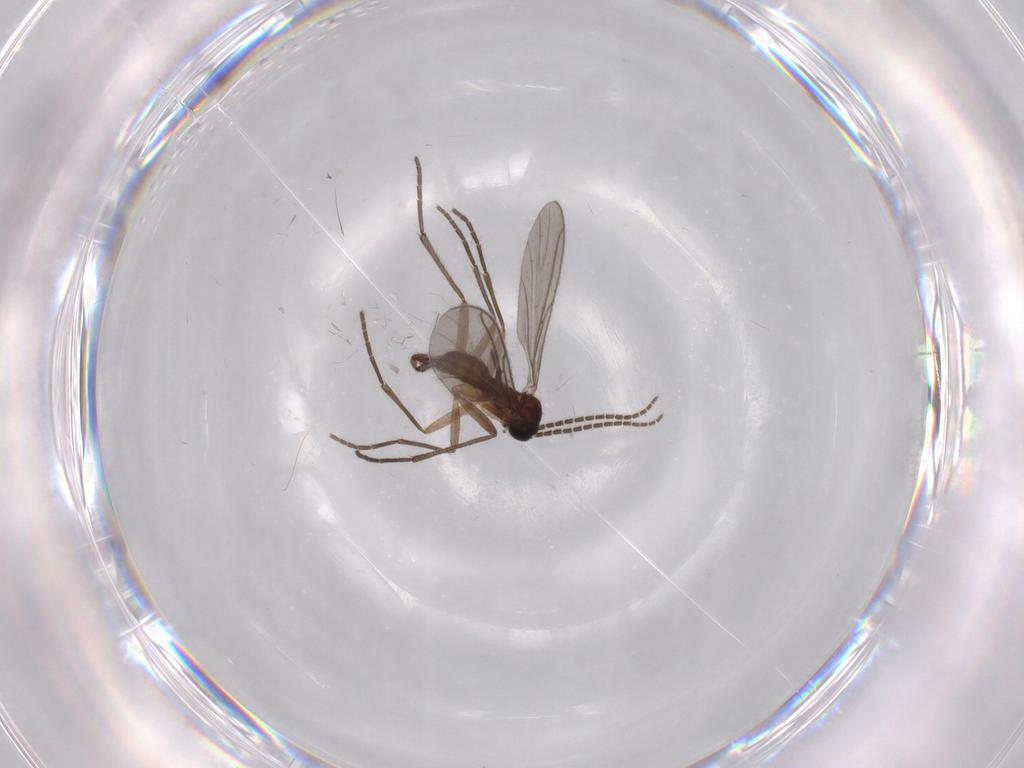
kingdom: Animalia
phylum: Arthropoda
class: Insecta
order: Diptera
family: Sciaridae
